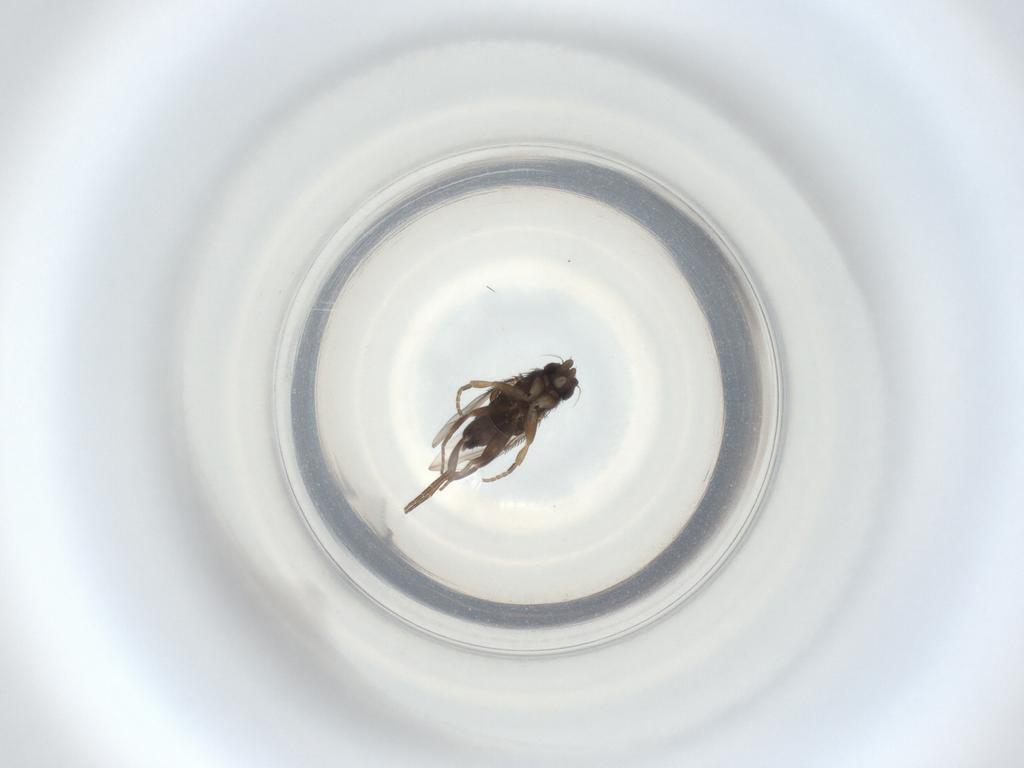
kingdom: Animalia
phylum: Arthropoda
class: Insecta
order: Diptera
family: Phoridae
